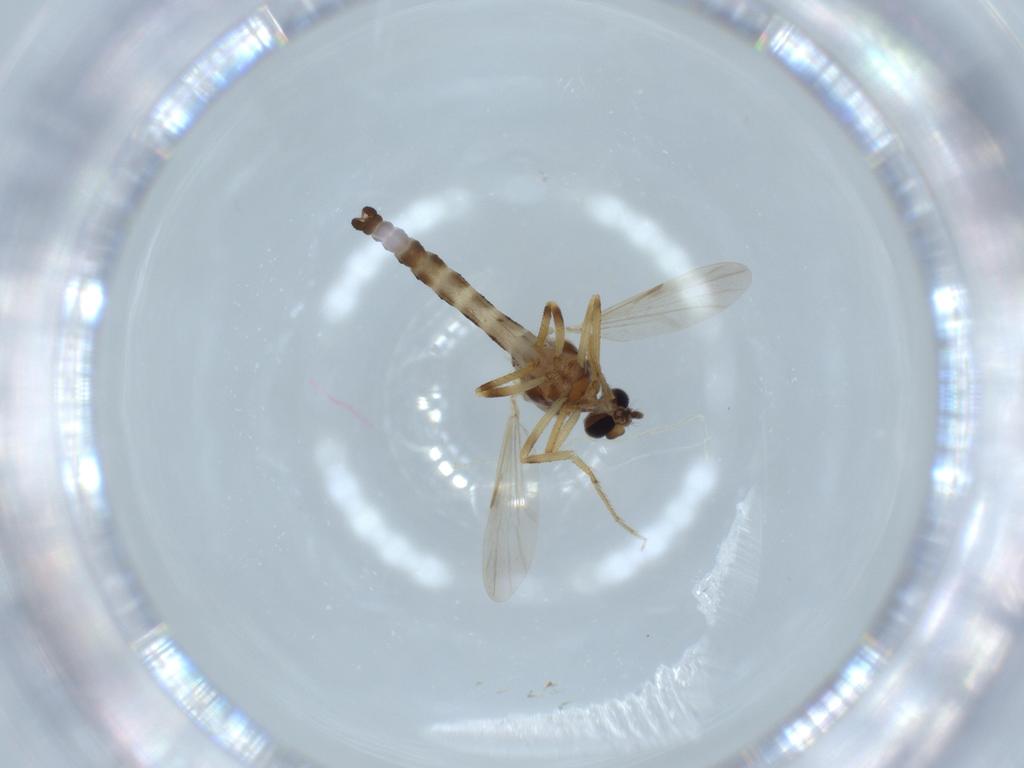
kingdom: Animalia
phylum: Arthropoda
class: Insecta
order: Diptera
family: Ceratopogonidae
